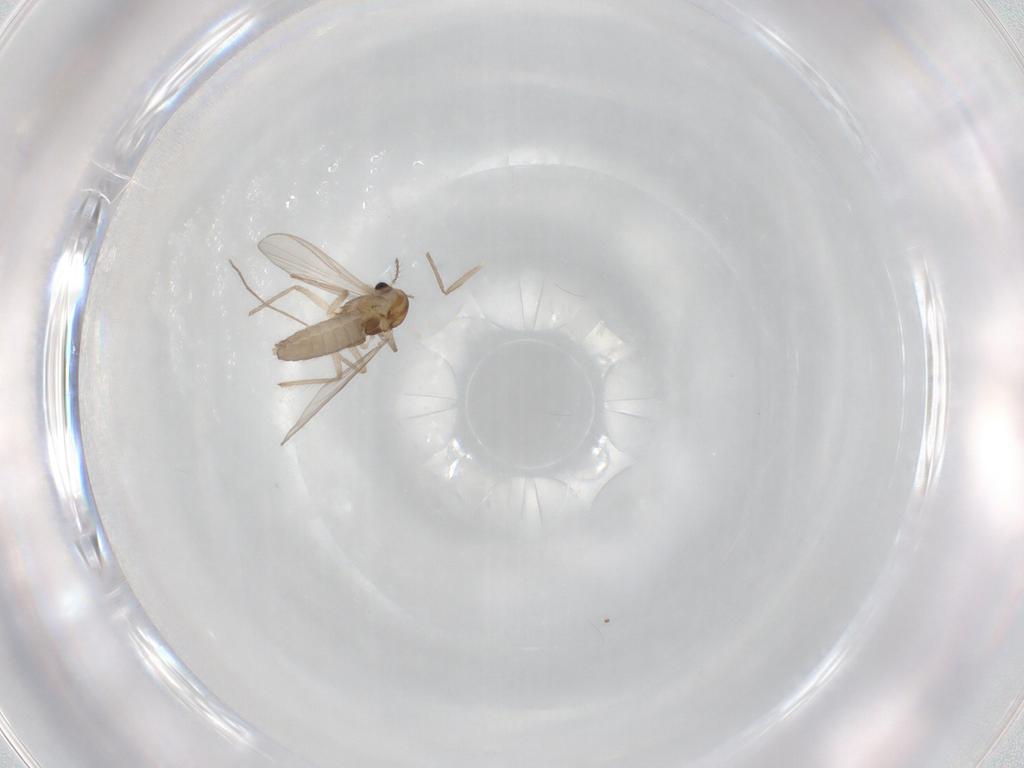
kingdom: Animalia
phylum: Arthropoda
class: Insecta
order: Diptera
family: Chironomidae
